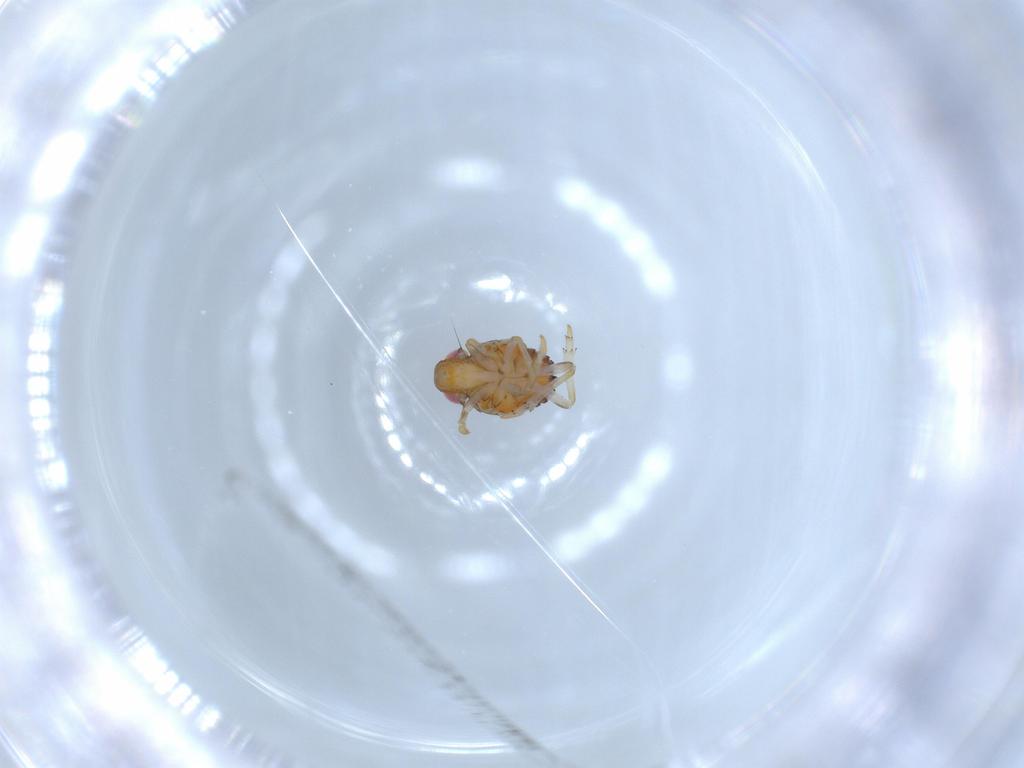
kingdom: Animalia
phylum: Arthropoda
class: Insecta
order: Hemiptera
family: Issidae
